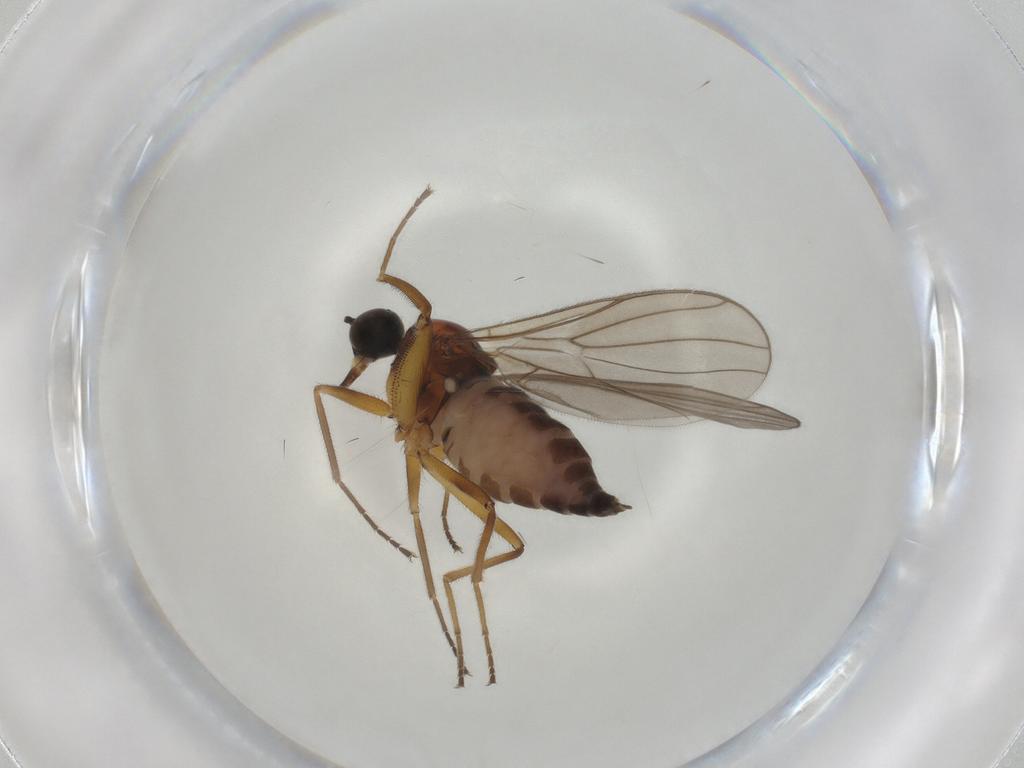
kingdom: Animalia
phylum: Arthropoda
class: Insecta
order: Diptera
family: Hybotidae
